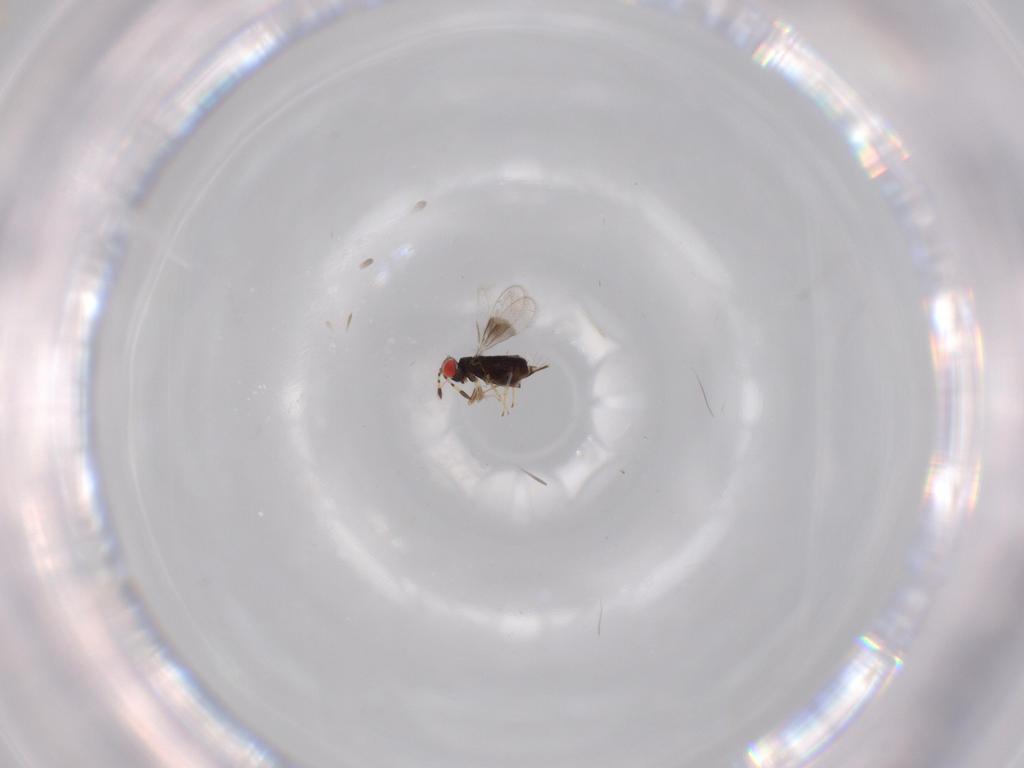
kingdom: Animalia
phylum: Arthropoda
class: Insecta
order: Hymenoptera
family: Azotidae
